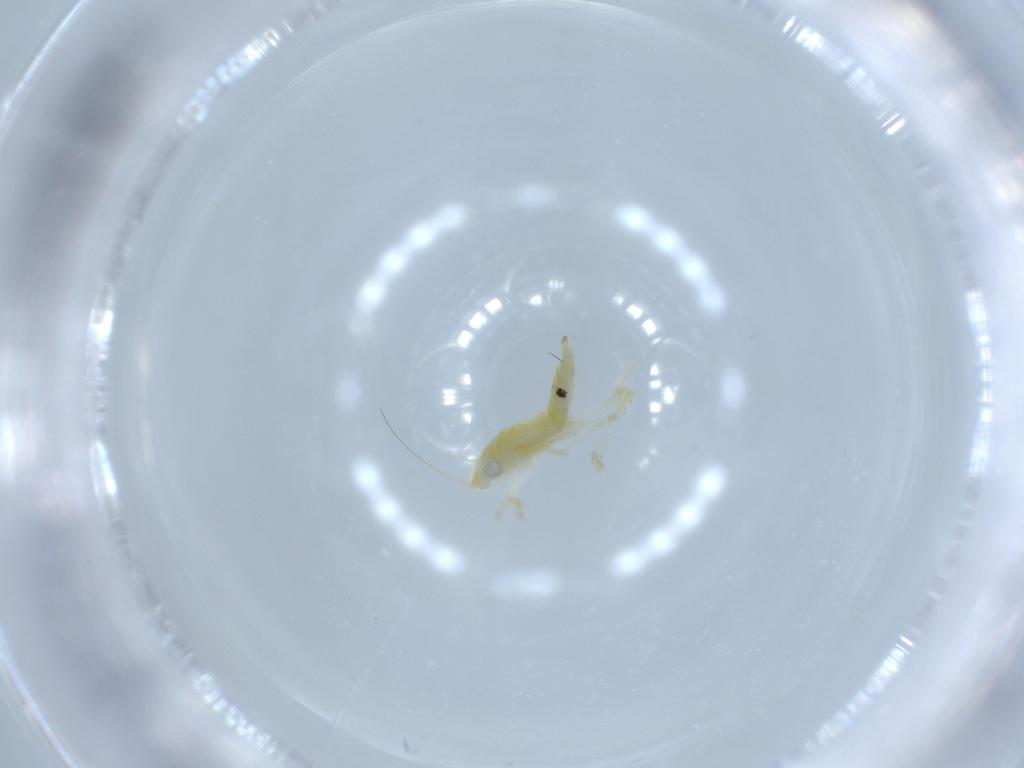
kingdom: Animalia
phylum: Arthropoda
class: Insecta
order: Hemiptera
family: Cicadellidae
